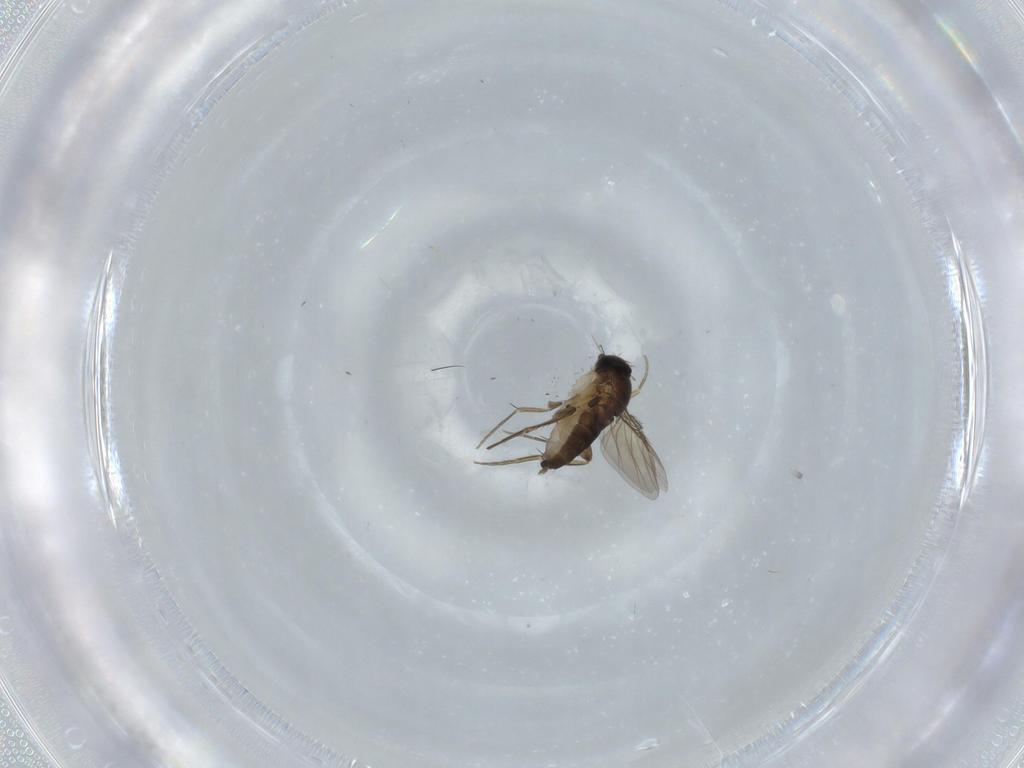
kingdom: Animalia
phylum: Arthropoda
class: Insecta
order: Diptera
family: Phoridae
